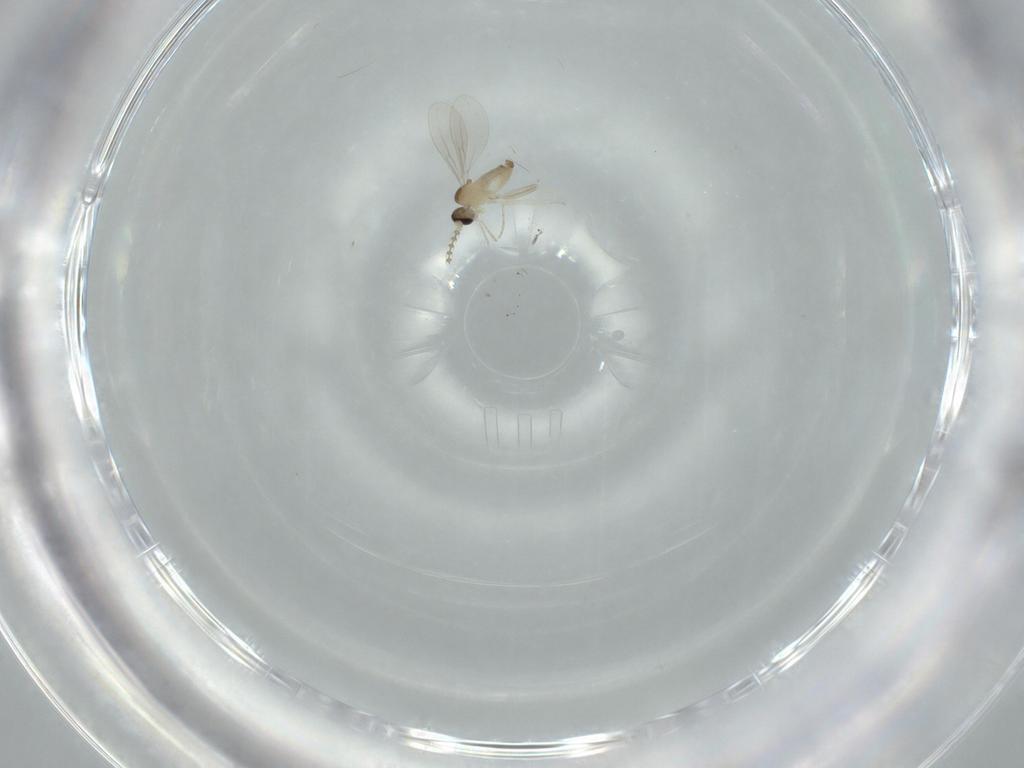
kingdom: Animalia
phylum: Arthropoda
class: Insecta
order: Diptera
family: Cecidomyiidae
